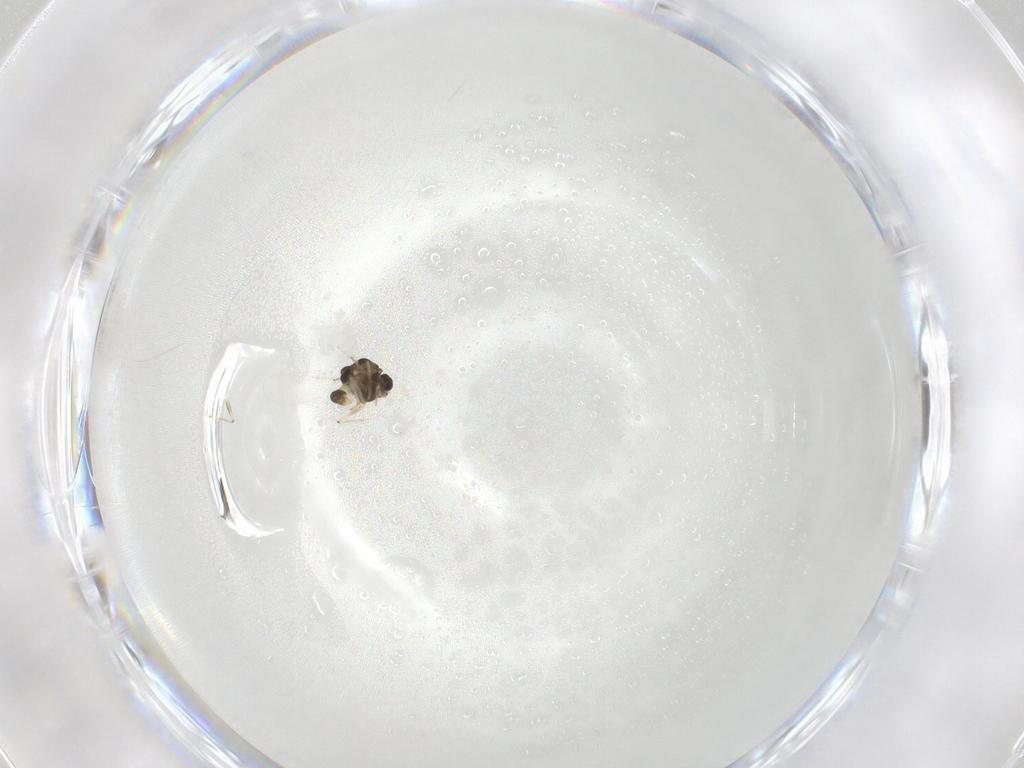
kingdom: Animalia
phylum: Arthropoda
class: Insecta
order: Diptera
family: Chironomidae
